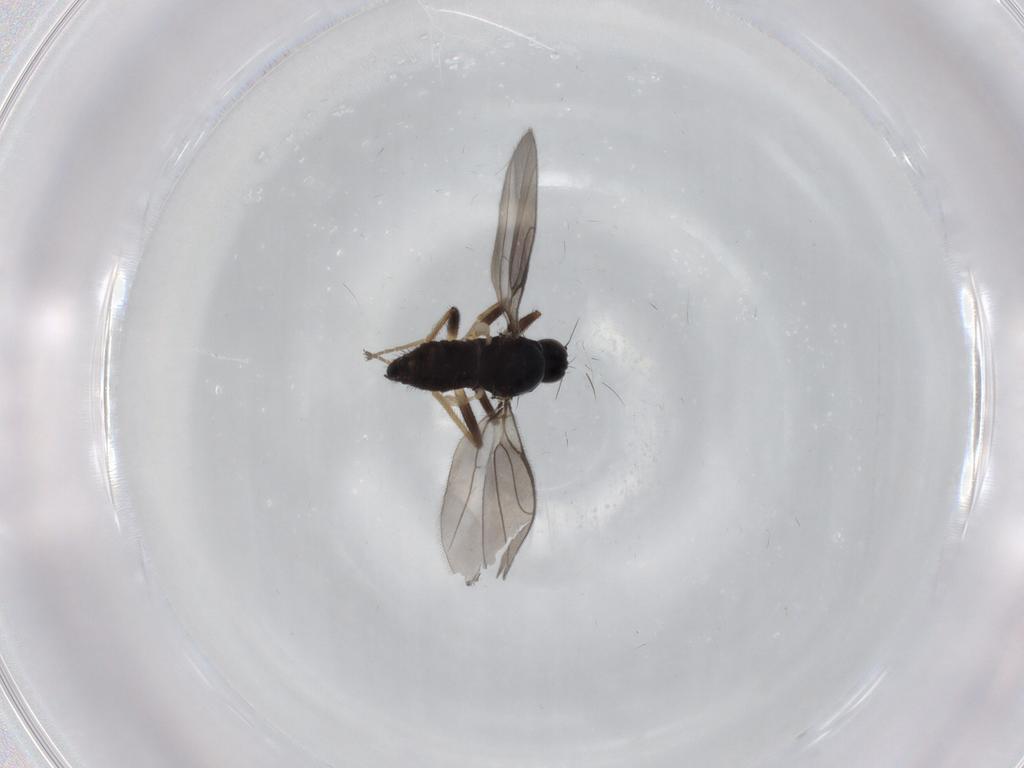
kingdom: Animalia
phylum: Arthropoda
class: Insecta
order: Diptera
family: Hybotidae
